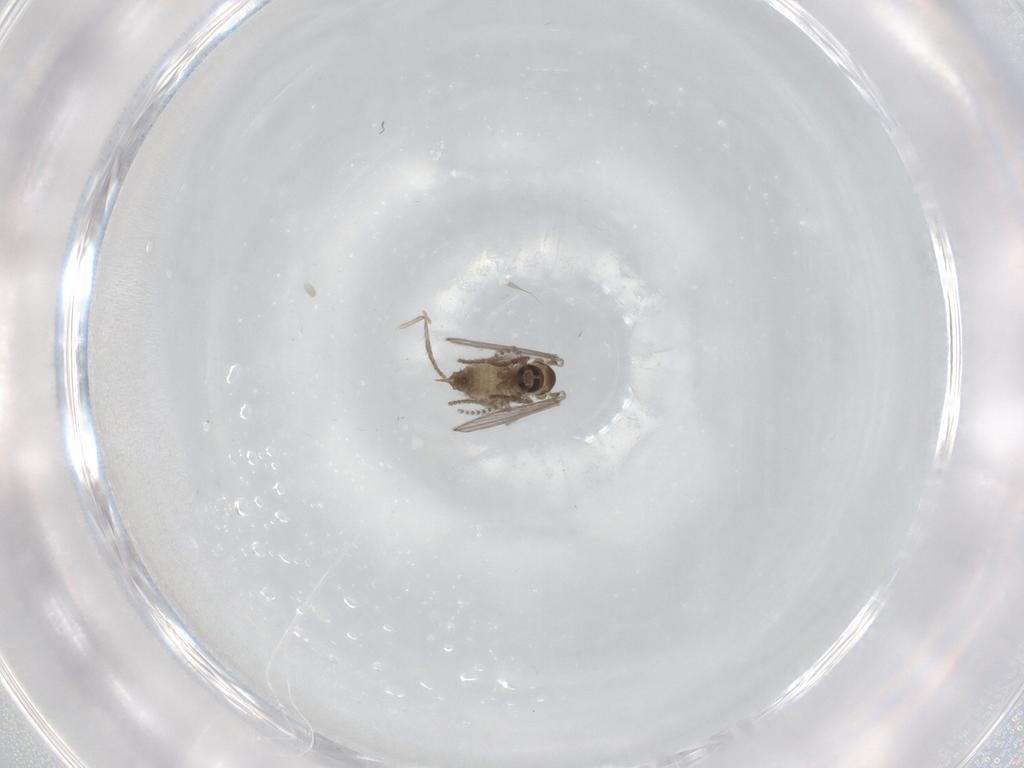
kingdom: Animalia
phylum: Arthropoda
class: Insecta
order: Diptera
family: Psychodidae
